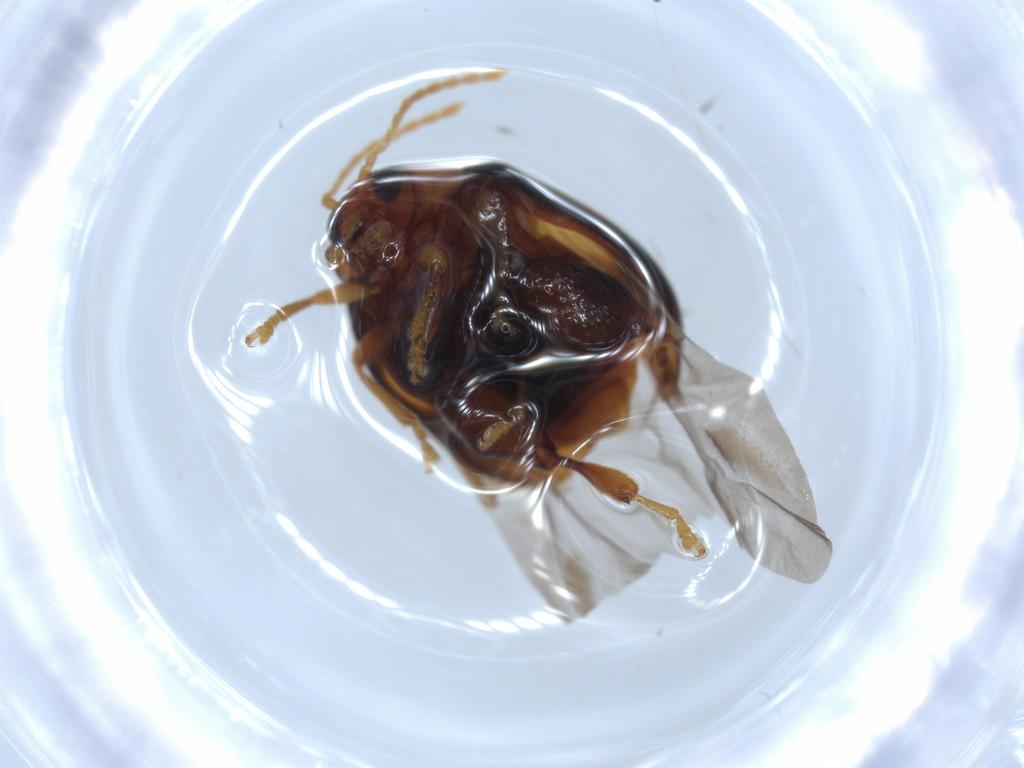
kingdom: Animalia
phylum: Arthropoda
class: Insecta
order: Coleoptera
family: Chrysomelidae
